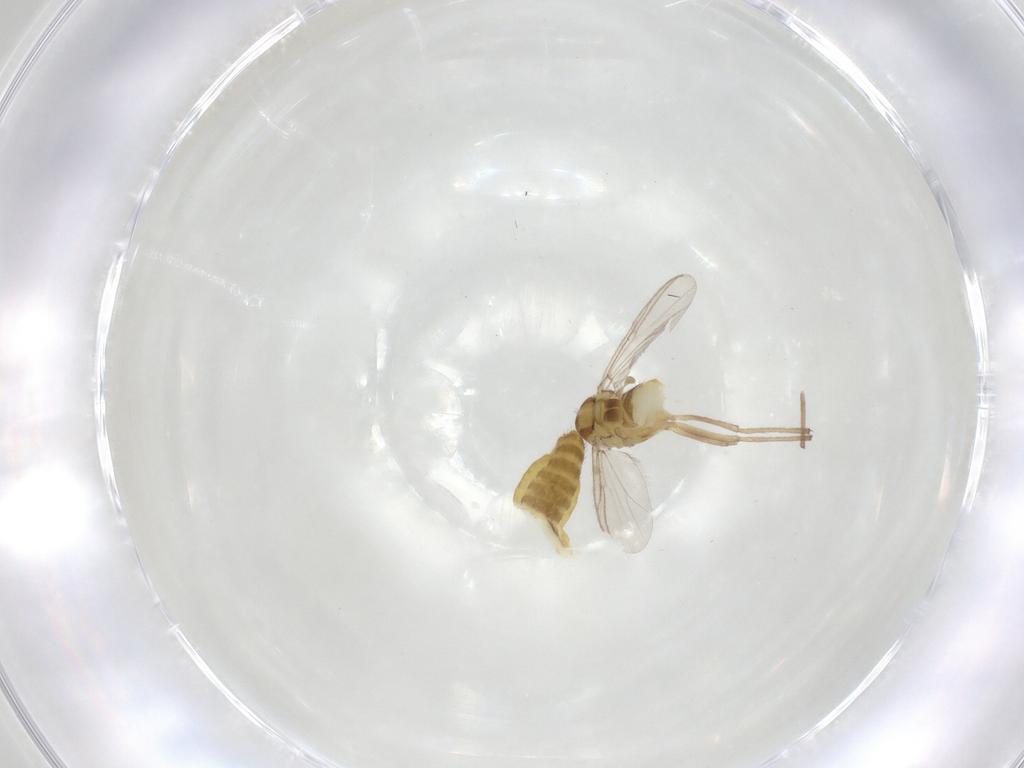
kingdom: Animalia
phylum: Arthropoda
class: Insecta
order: Diptera
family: Chironomidae
